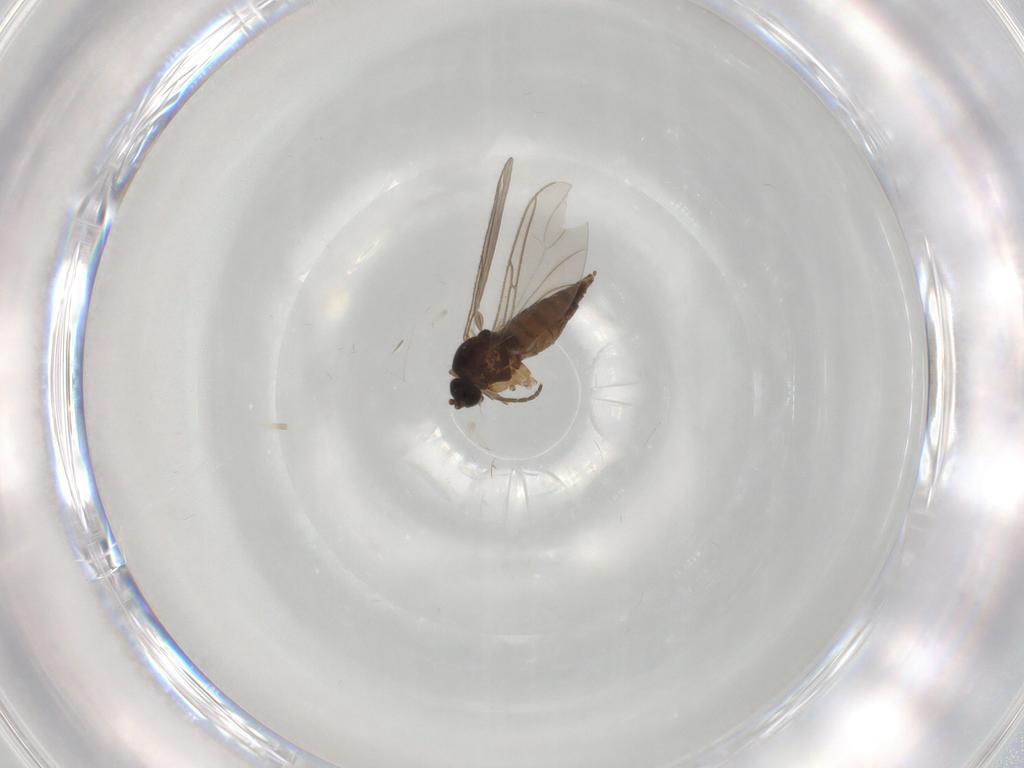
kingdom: Animalia
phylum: Arthropoda
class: Insecta
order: Diptera
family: Sciaridae
